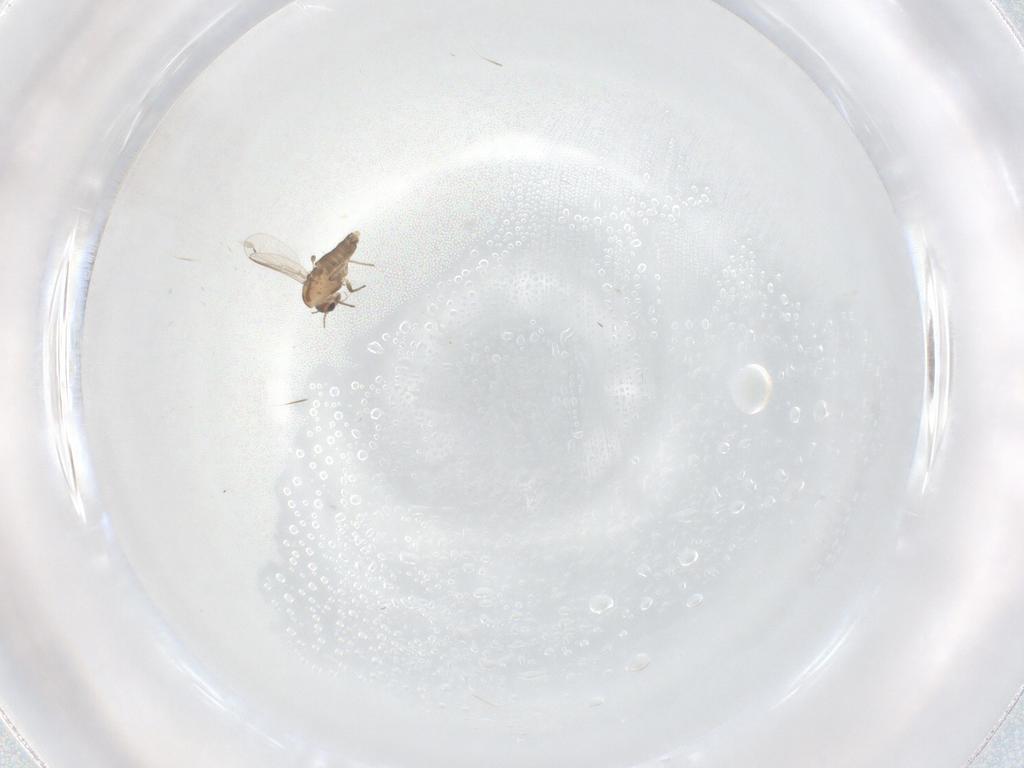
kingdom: Animalia
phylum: Arthropoda
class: Insecta
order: Diptera
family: Chironomidae
